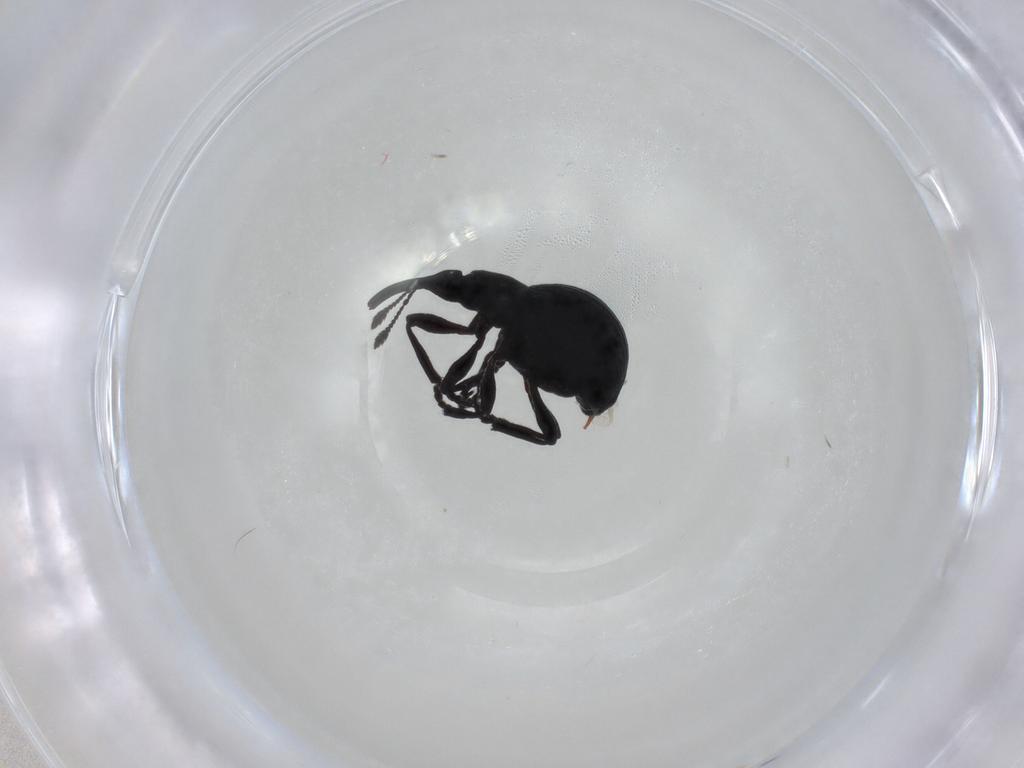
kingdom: Animalia
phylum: Arthropoda
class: Insecta
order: Coleoptera
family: Brentidae
